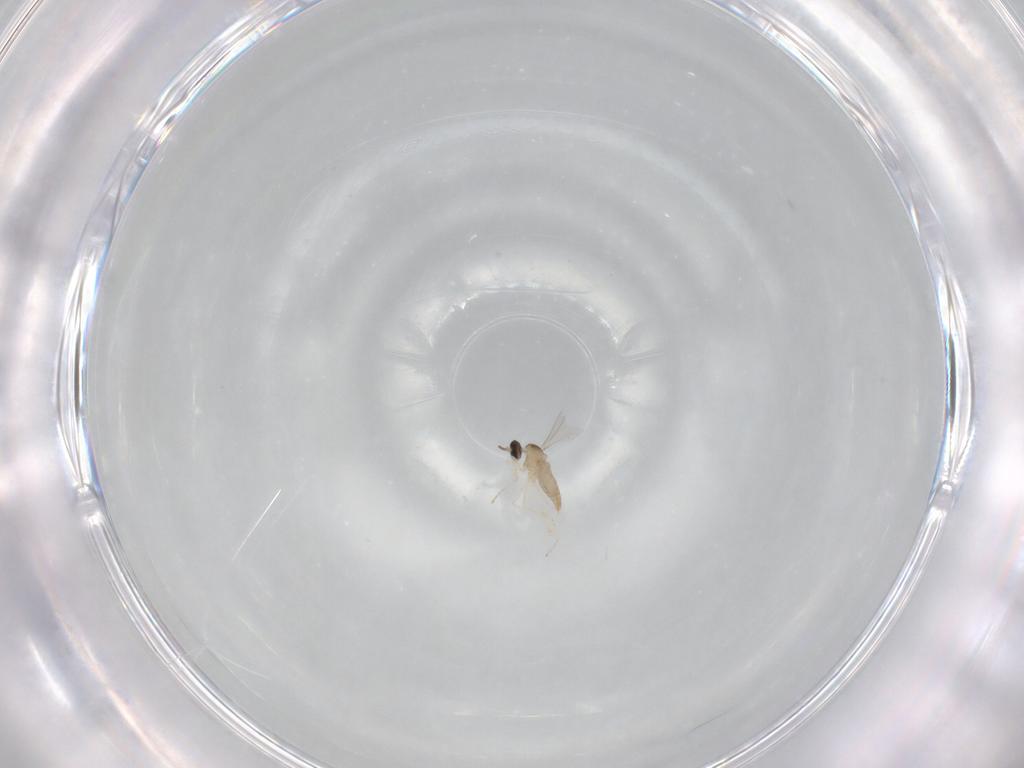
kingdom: Animalia
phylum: Arthropoda
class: Insecta
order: Diptera
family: Cecidomyiidae
